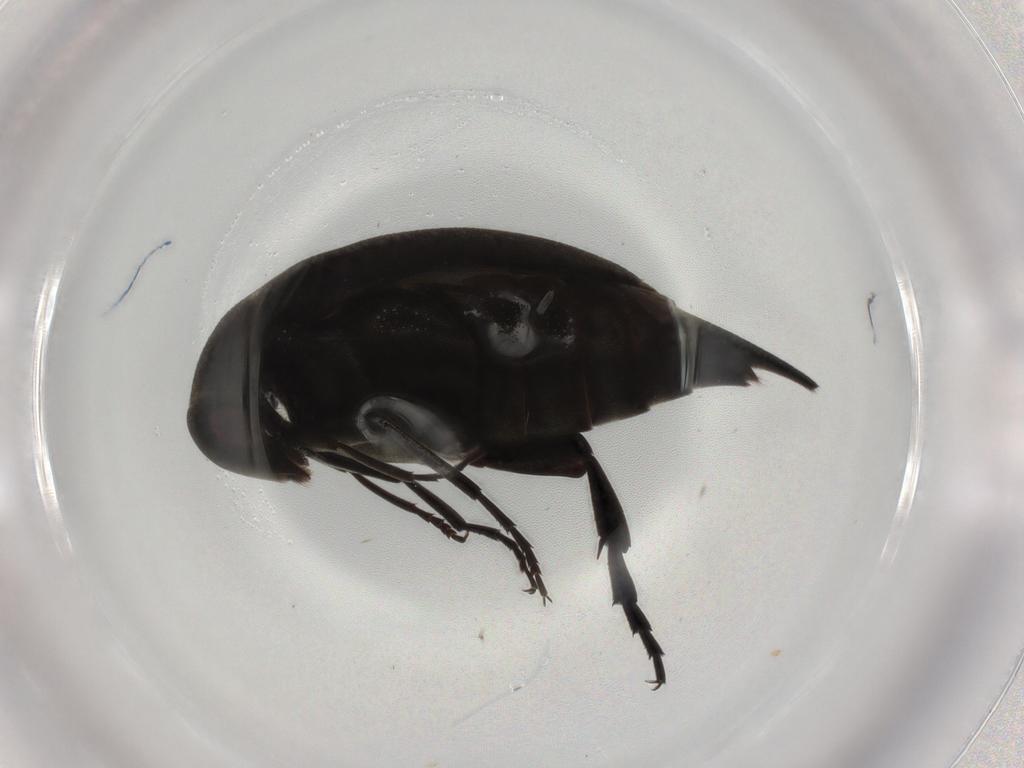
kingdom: Animalia
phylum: Arthropoda
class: Insecta
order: Coleoptera
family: Mordellidae
